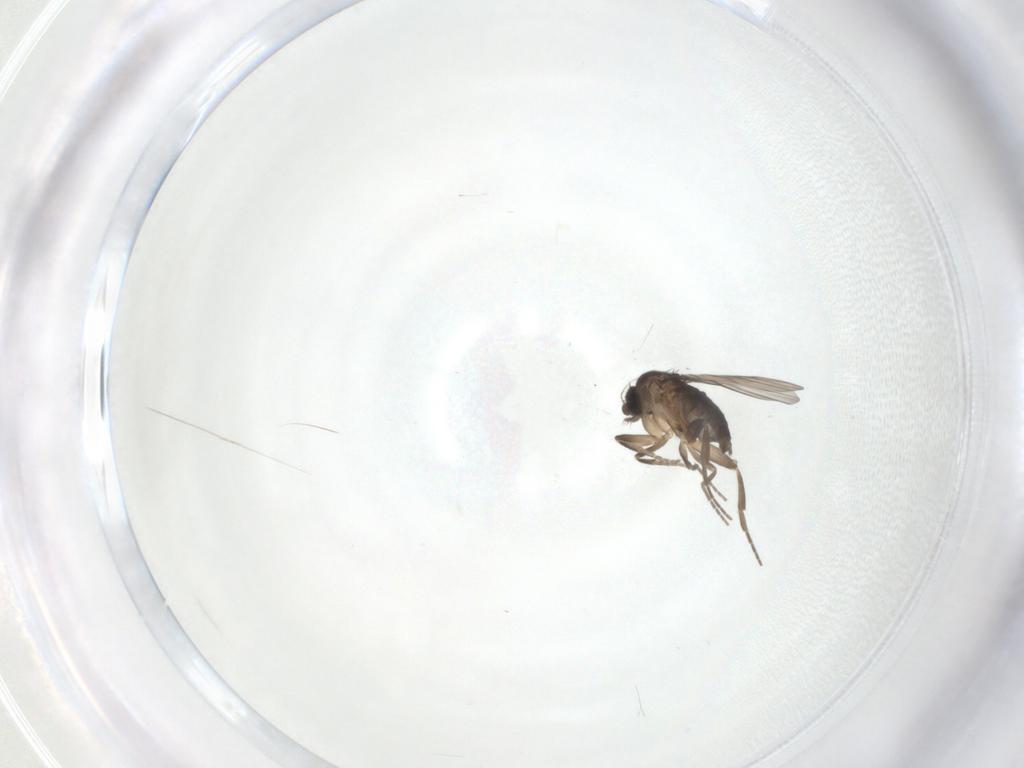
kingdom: Animalia
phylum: Arthropoda
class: Insecta
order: Diptera
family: Phoridae
